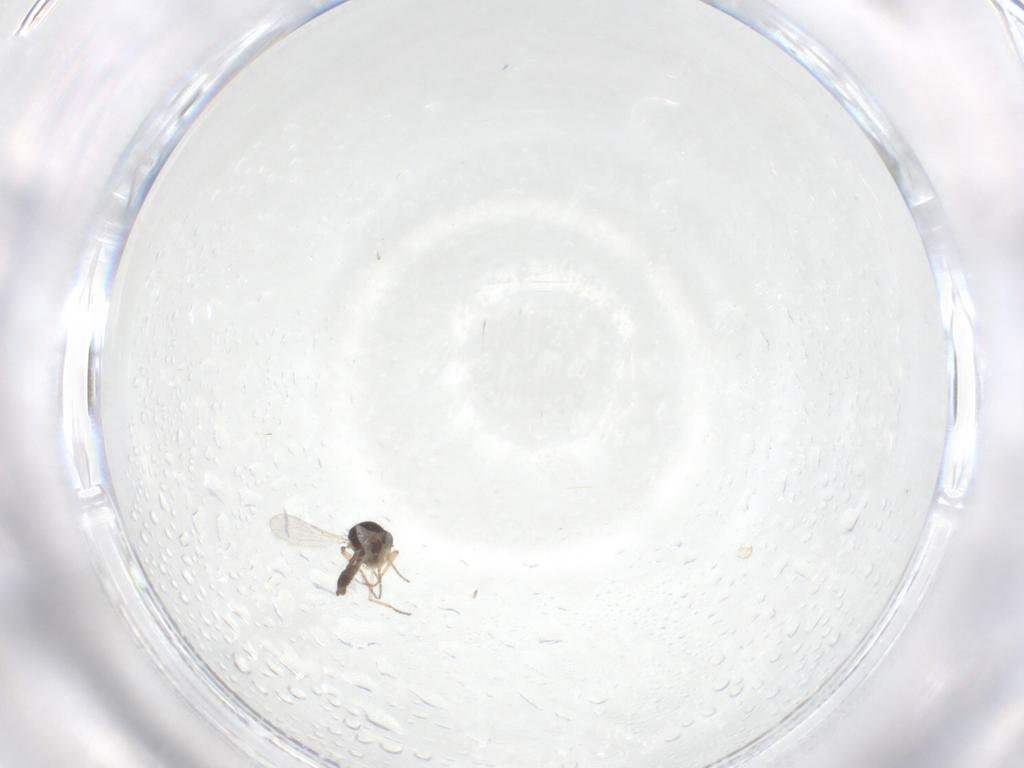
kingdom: Animalia
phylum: Arthropoda
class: Insecta
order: Diptera
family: Ceratopogonidae
